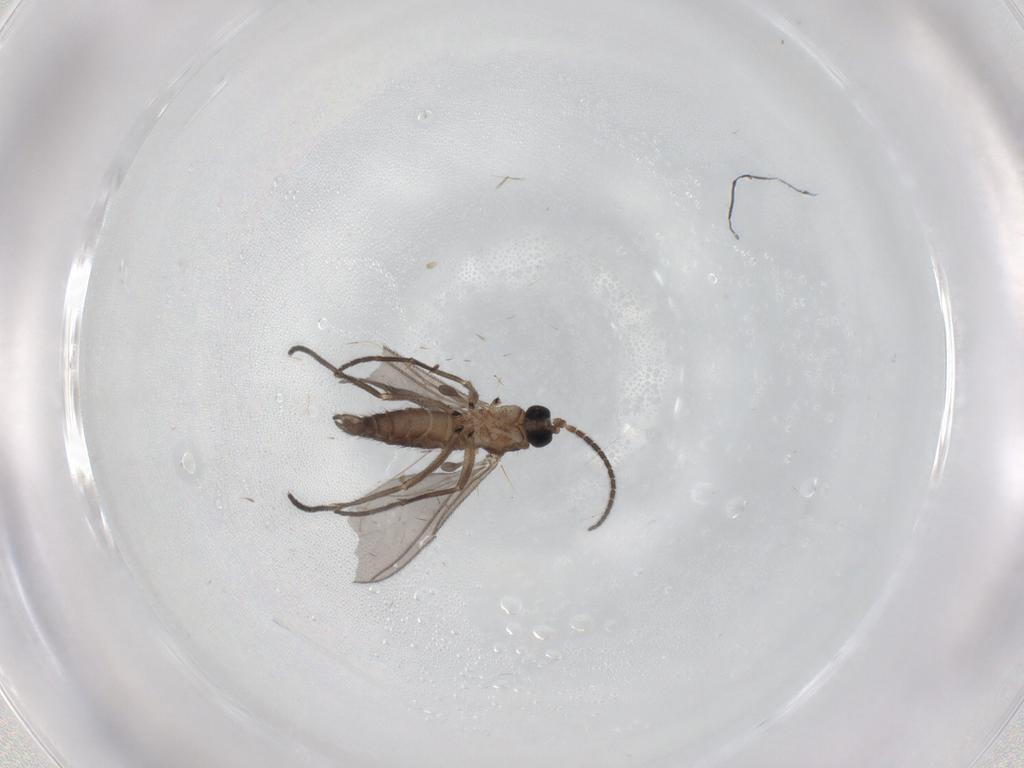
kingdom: Animalia
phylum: Arthropoda
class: Insecta
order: Diptera
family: Sciaridae
